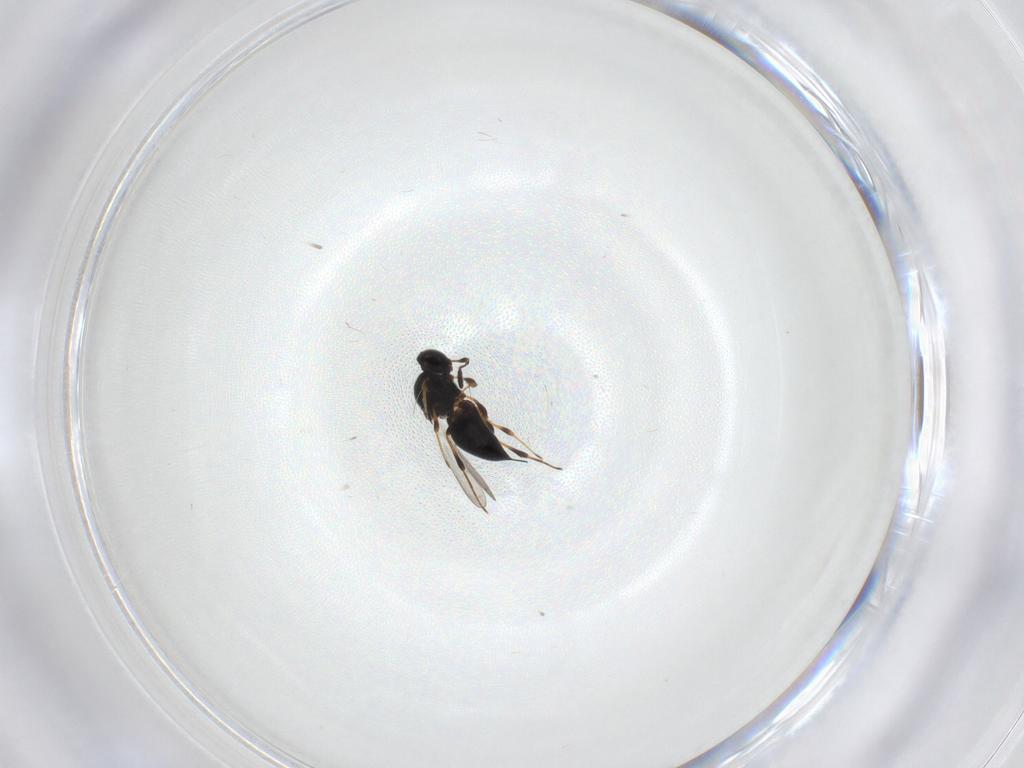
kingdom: Animalia
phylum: Arthropoda
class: Insecta
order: Hymenoptera
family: Formicidae
